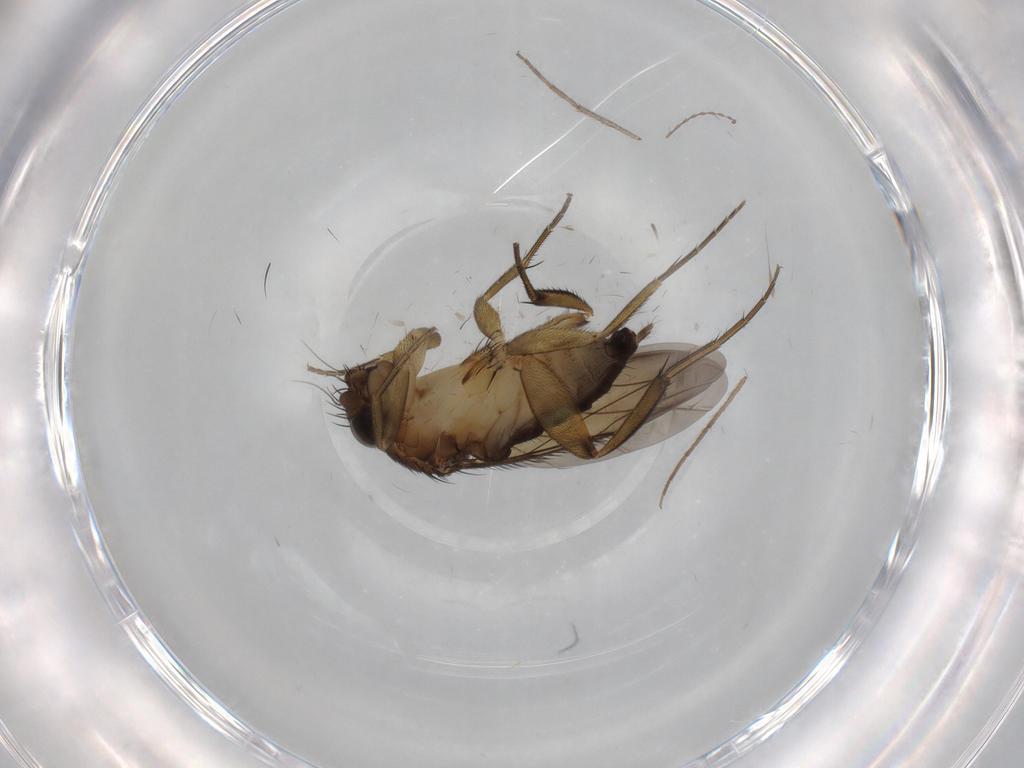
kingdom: Animalia
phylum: Arthropoda
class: Insecta
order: Diptera
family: Phoridae
